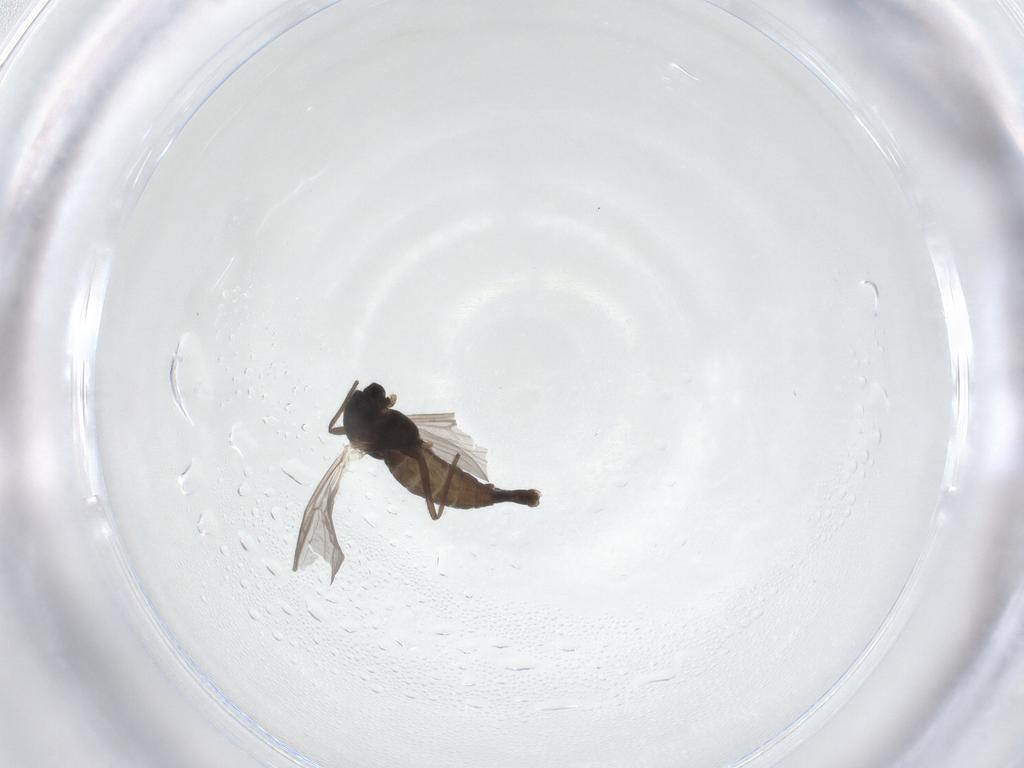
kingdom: Animalia
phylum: Arthropoda
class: Insecta
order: Diptera
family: Chironomidae
